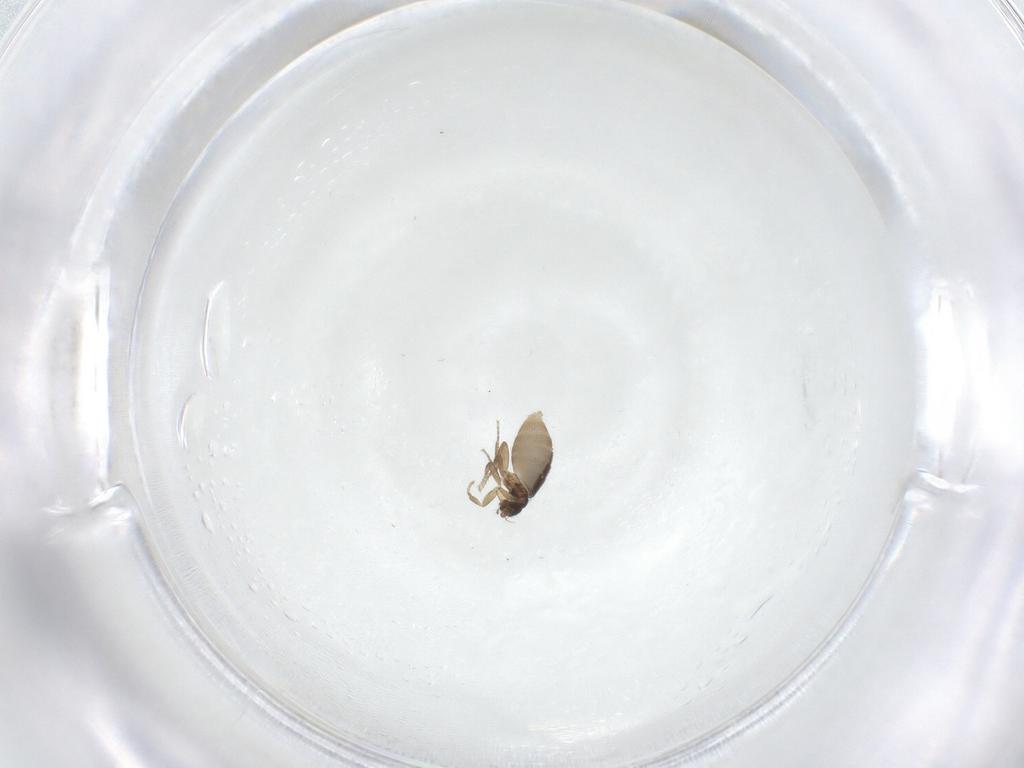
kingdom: Animalia
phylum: Arthropoda
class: Insecta
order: Diptera
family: Phoridae
